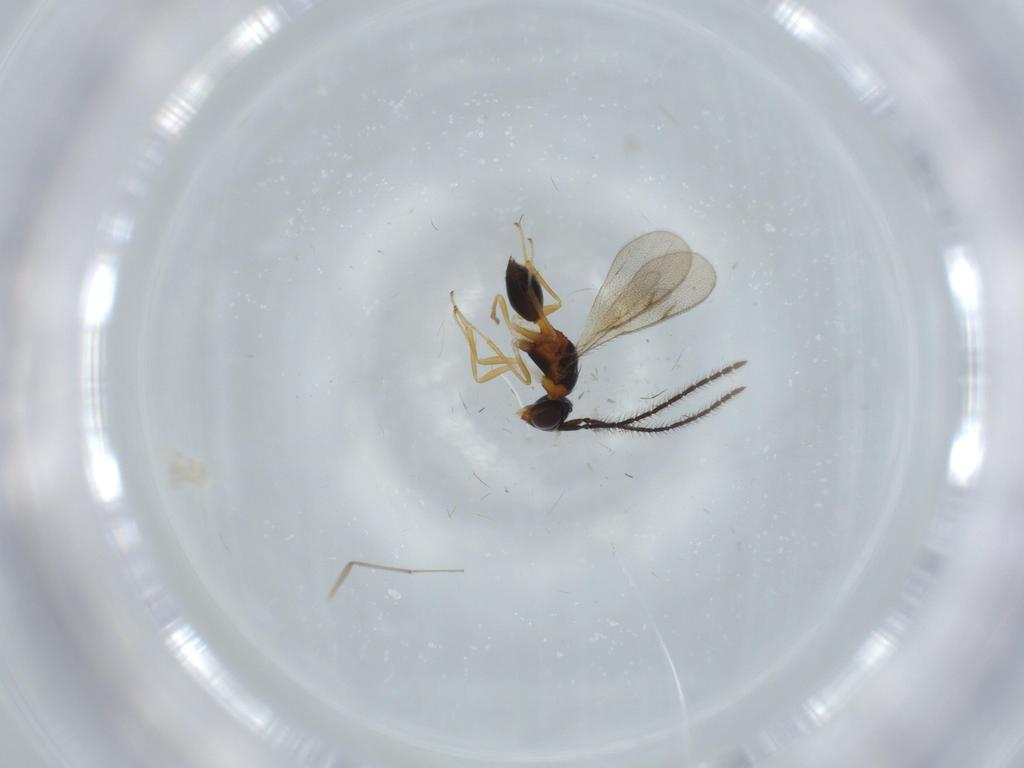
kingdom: Animalia
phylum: Arthropoda
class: Insecta
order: Hymenoptera
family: Diparidae
